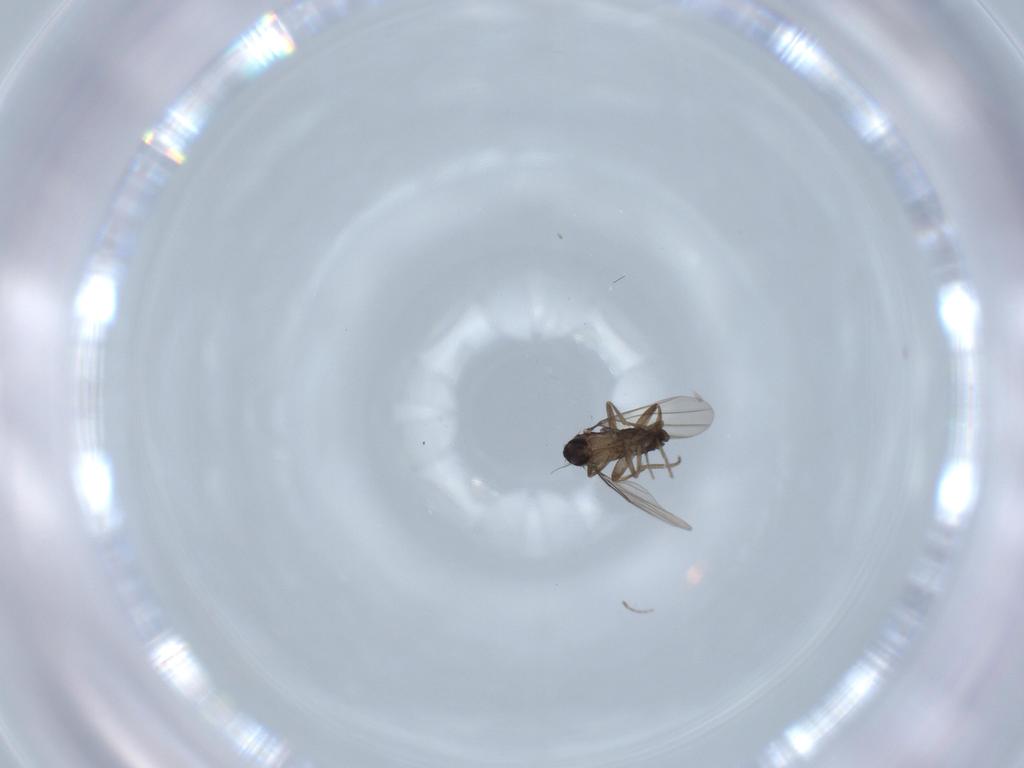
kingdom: Animalia
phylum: Arthropoda
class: Insecta
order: Diptera
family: Phoridae
